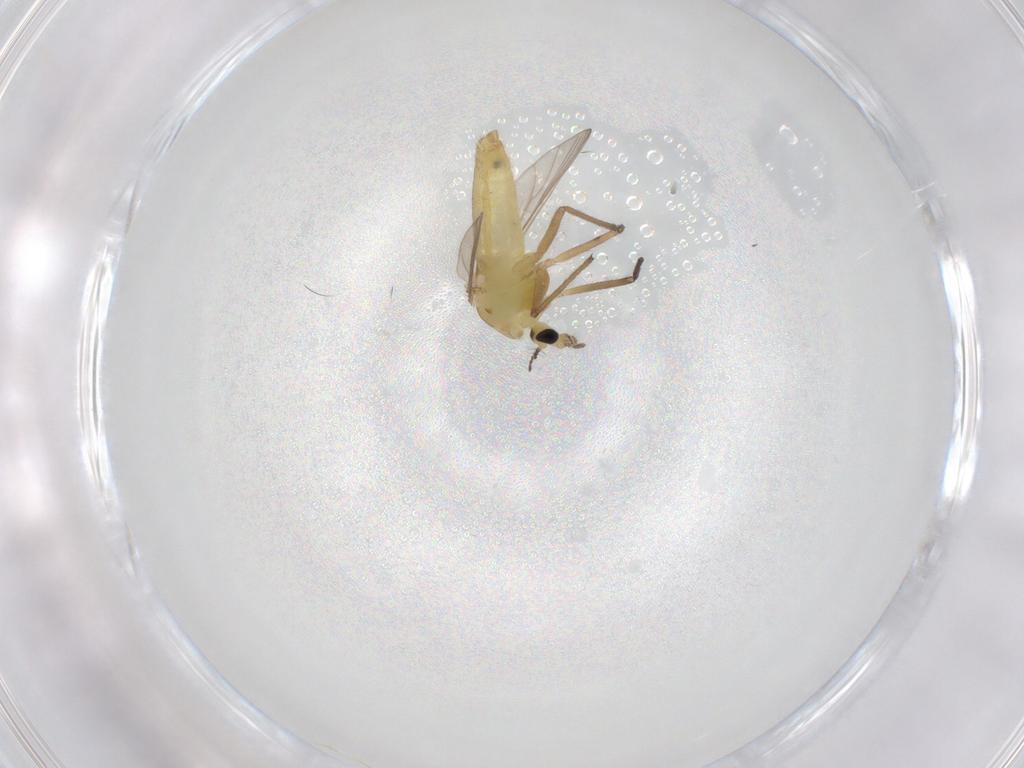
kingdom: Animalia
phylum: Arthropoda
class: Insecta
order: Diptera
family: Chironomidae
